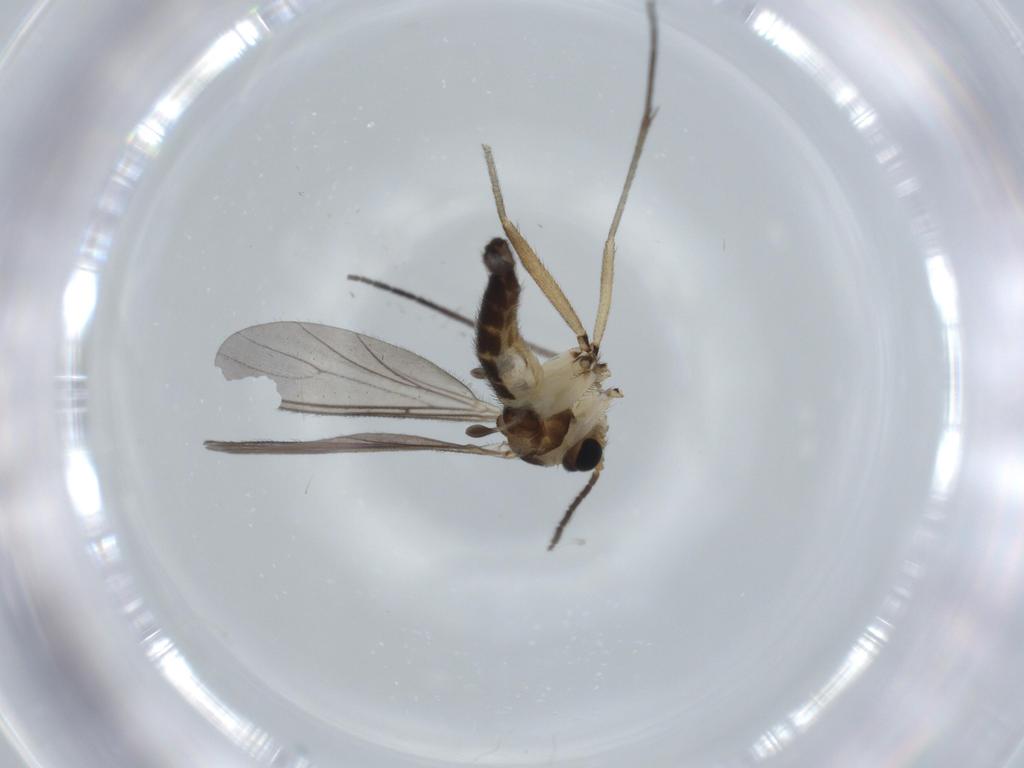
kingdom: Animalia
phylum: Arthropoda
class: Insecta
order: Diptera
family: Sciaridae
